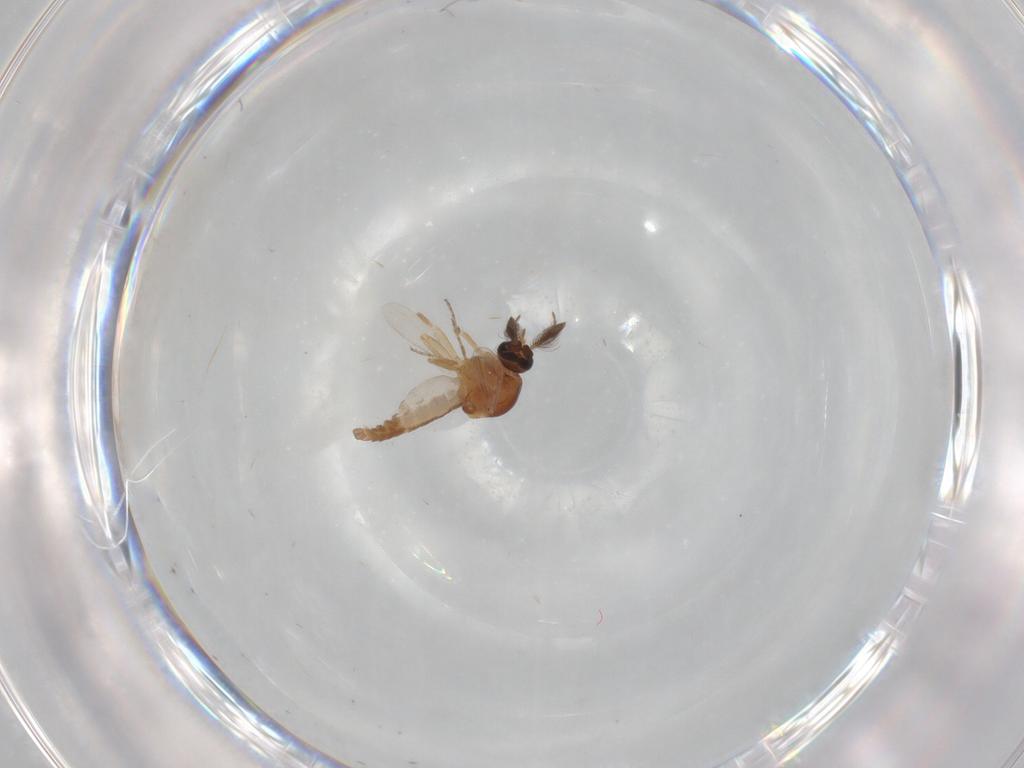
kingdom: Animalia
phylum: Arthropoda
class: Insecta
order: Diptera
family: Ceratopogonidae
